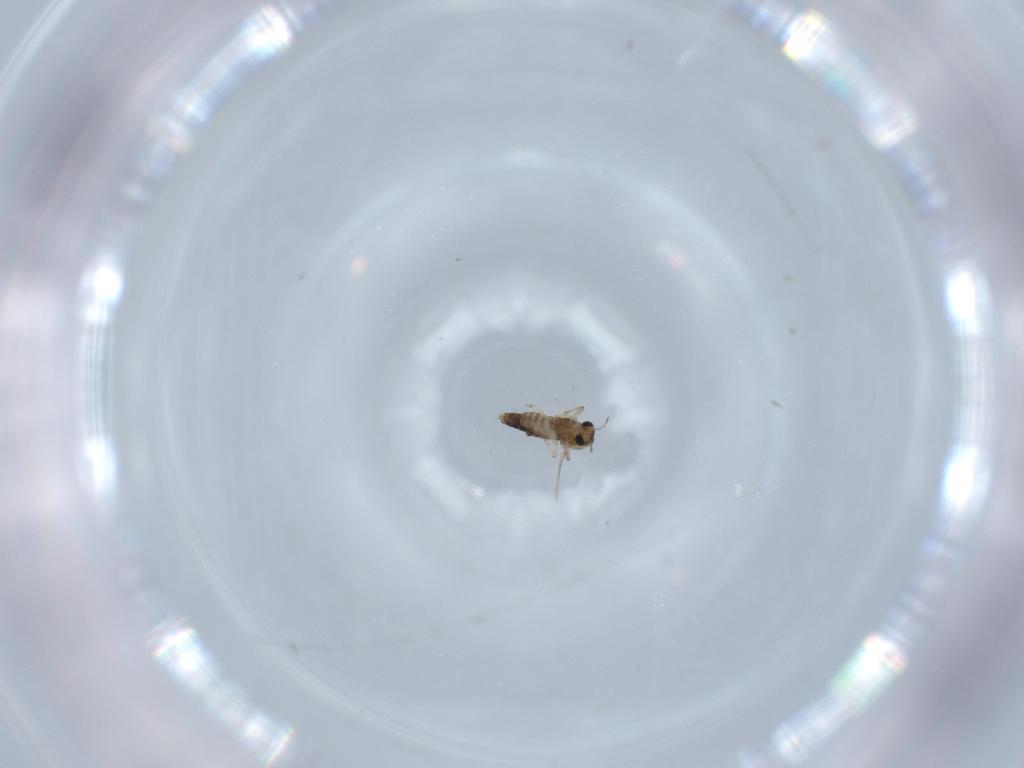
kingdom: Animalia
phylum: Arthropoda
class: Insecta
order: Diptera
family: Chironomidae
